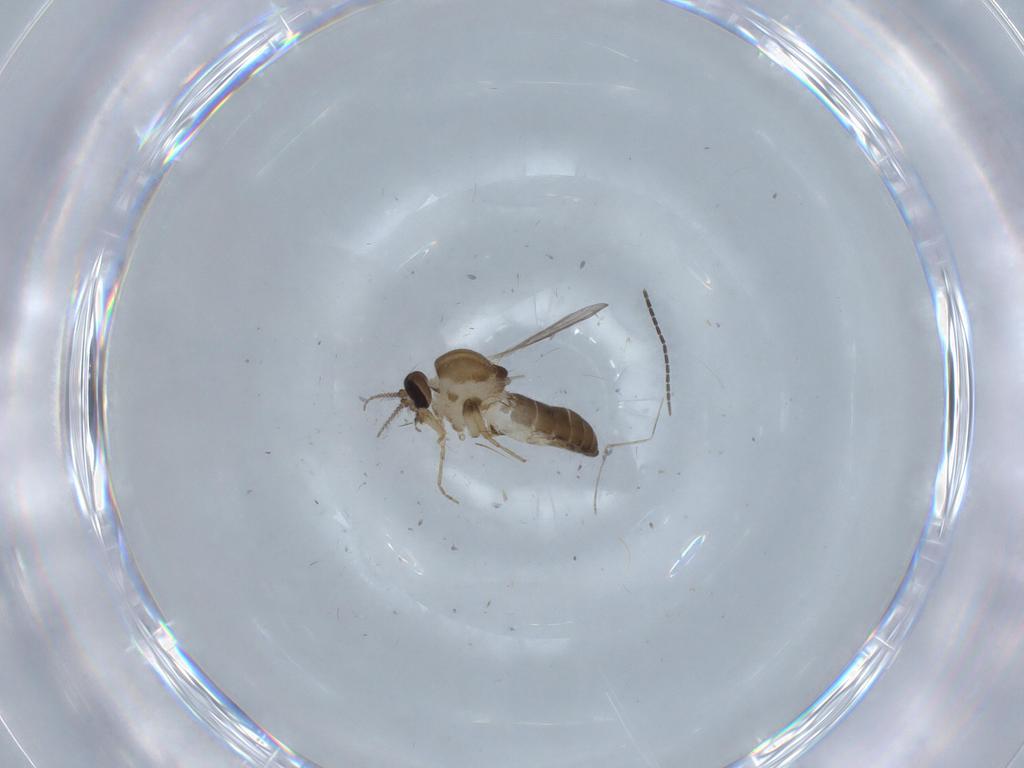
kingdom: Animalia
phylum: Arthropoda
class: Insecta
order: Diptera
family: Sciaridae
